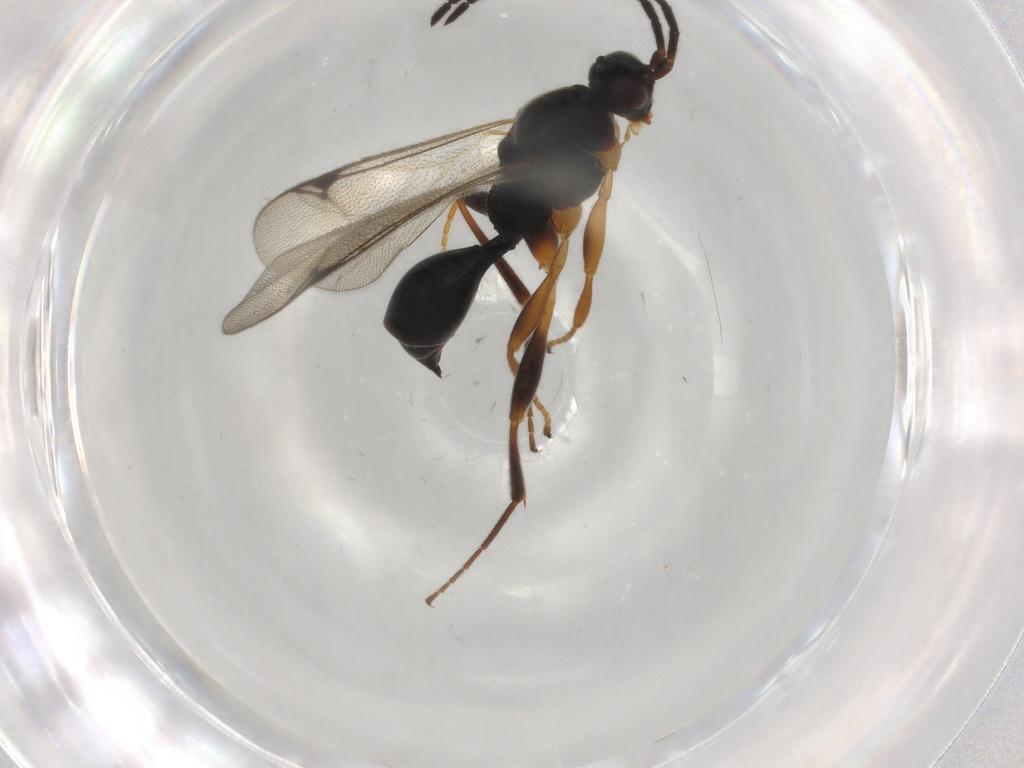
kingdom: Animalia
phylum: Arthropoda
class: Insecta
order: Hymenoptera
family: Proctotrupidae
